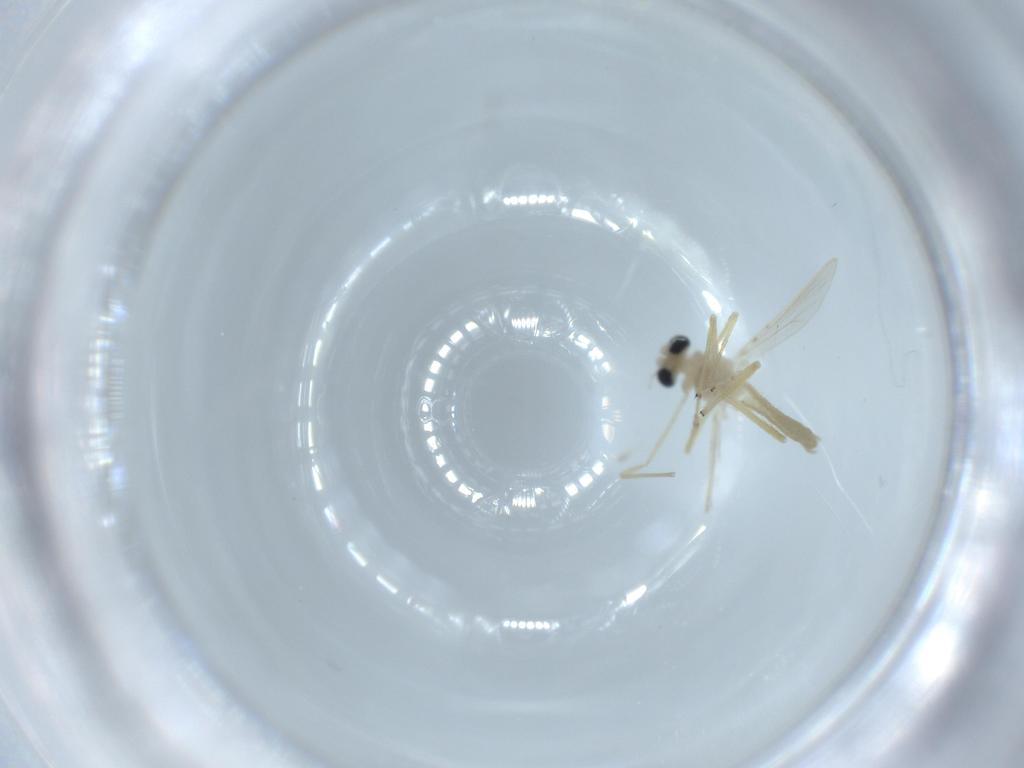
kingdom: Animalia
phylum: Arthropoda
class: Insecta
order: Diptera
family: Chironomidae
